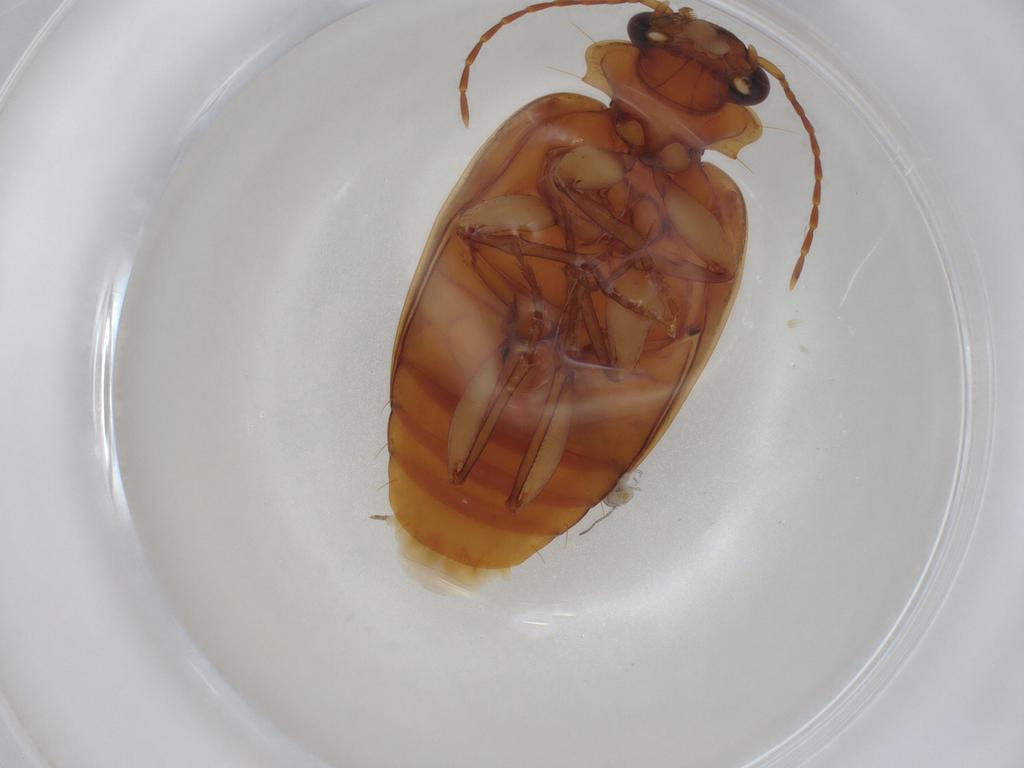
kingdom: Animalia
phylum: Arthropoda
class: Insecta
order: Coleoptera
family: Carabidae
